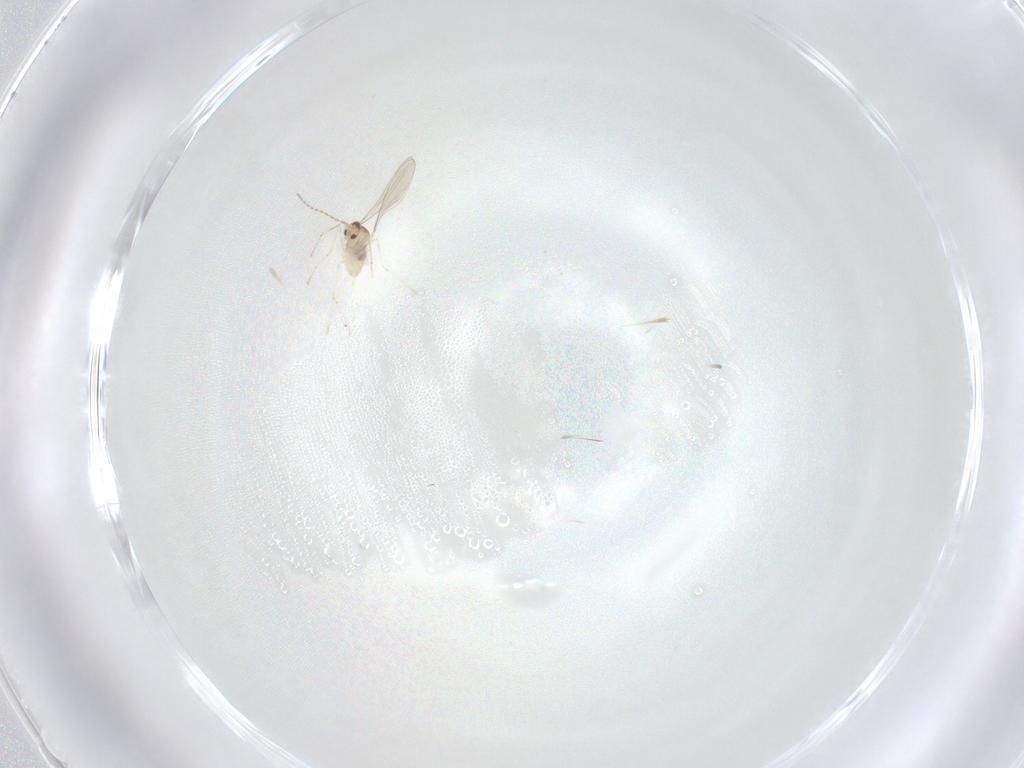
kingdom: Animalia
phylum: Arthropoda
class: Insecta
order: Diptera
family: Cecidomyiidae
